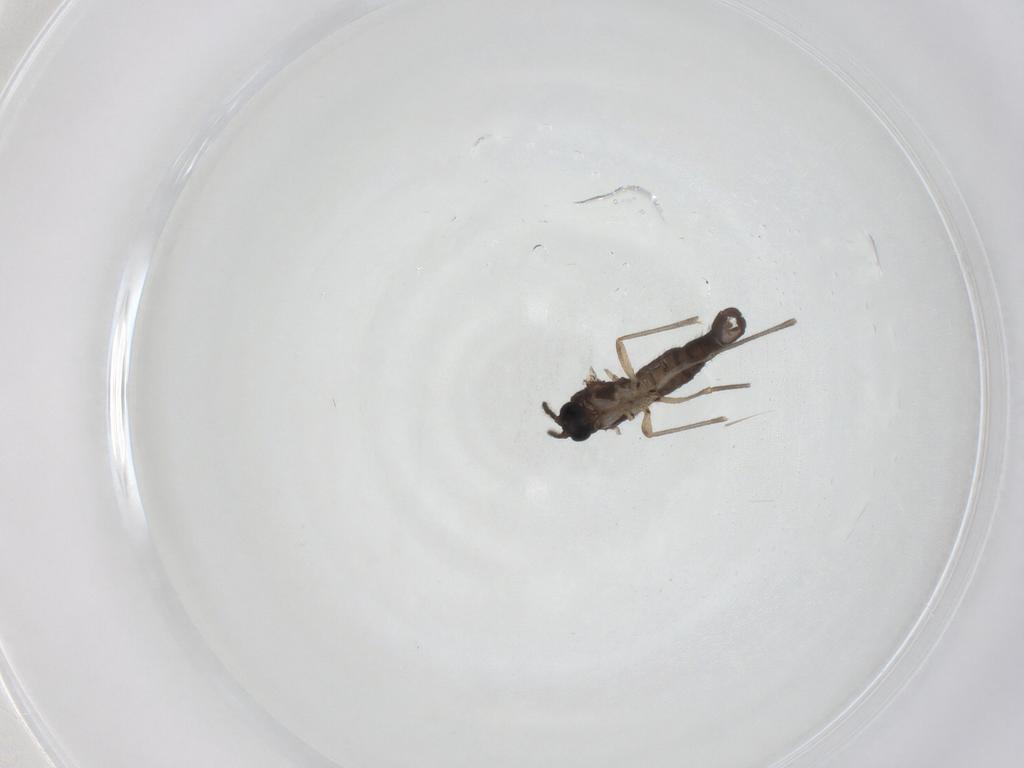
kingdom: Animalia
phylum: Arthropoda
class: Insecta
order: Diptera
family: Sciaridae
